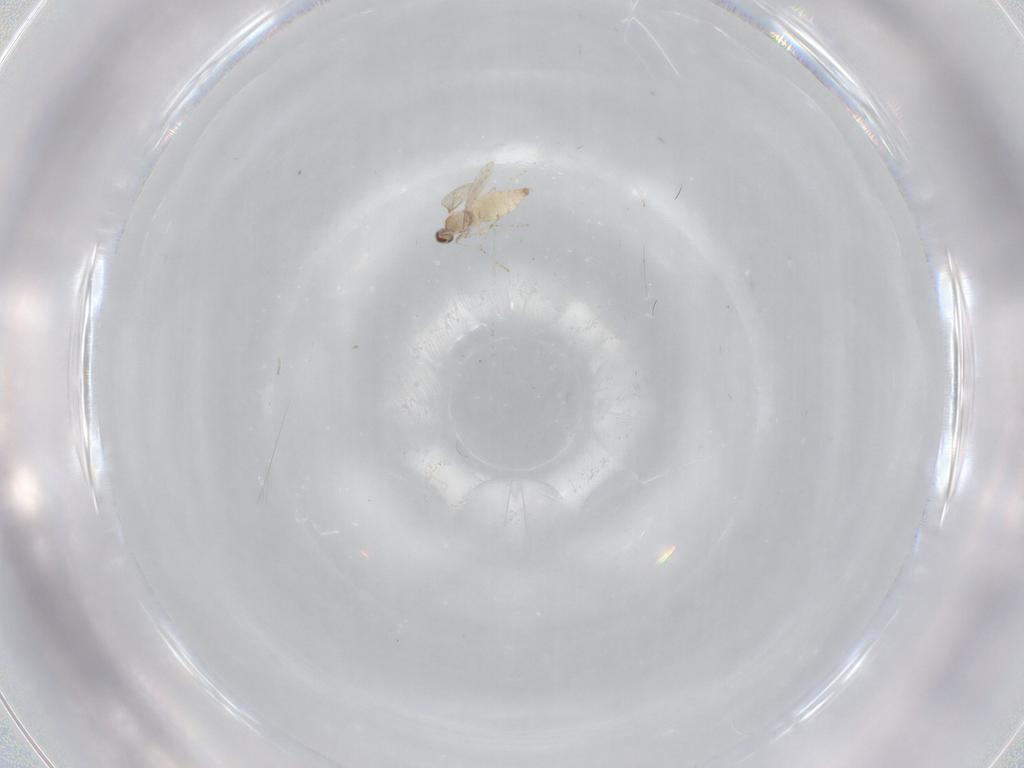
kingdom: Animalia
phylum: Arthropoda
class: Insecta
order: Diptera
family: Cecidomyiidae
